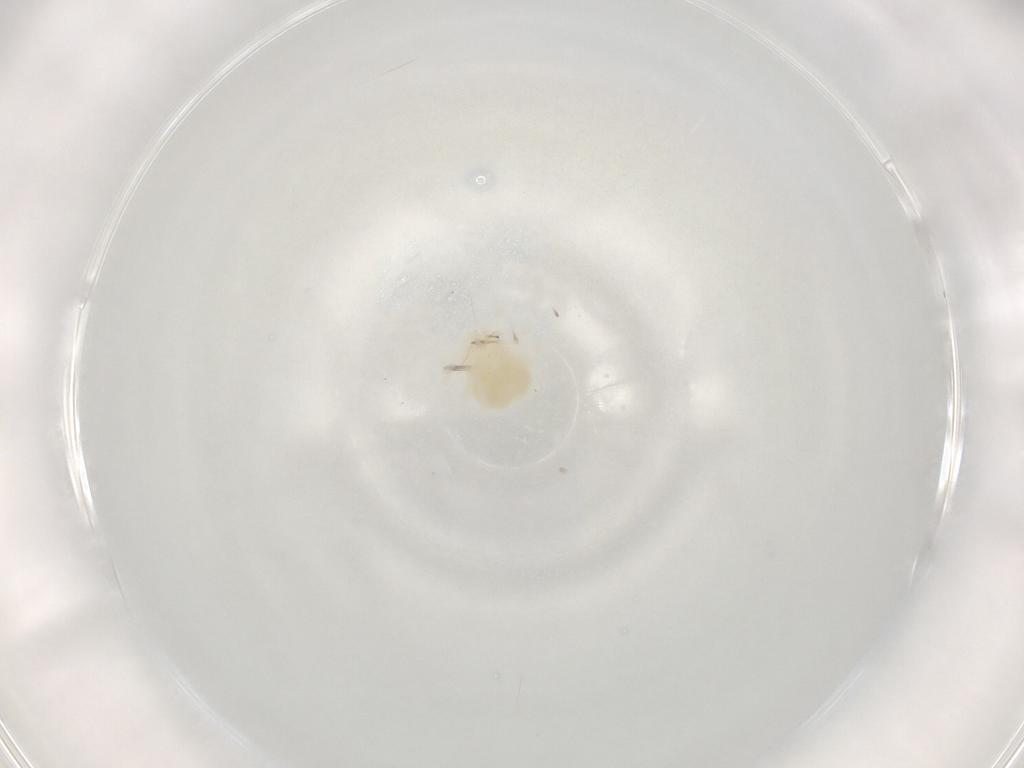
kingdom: Animalia
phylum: Arthropoda
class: Arachnida
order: Trombidiformes
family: Anystidae
